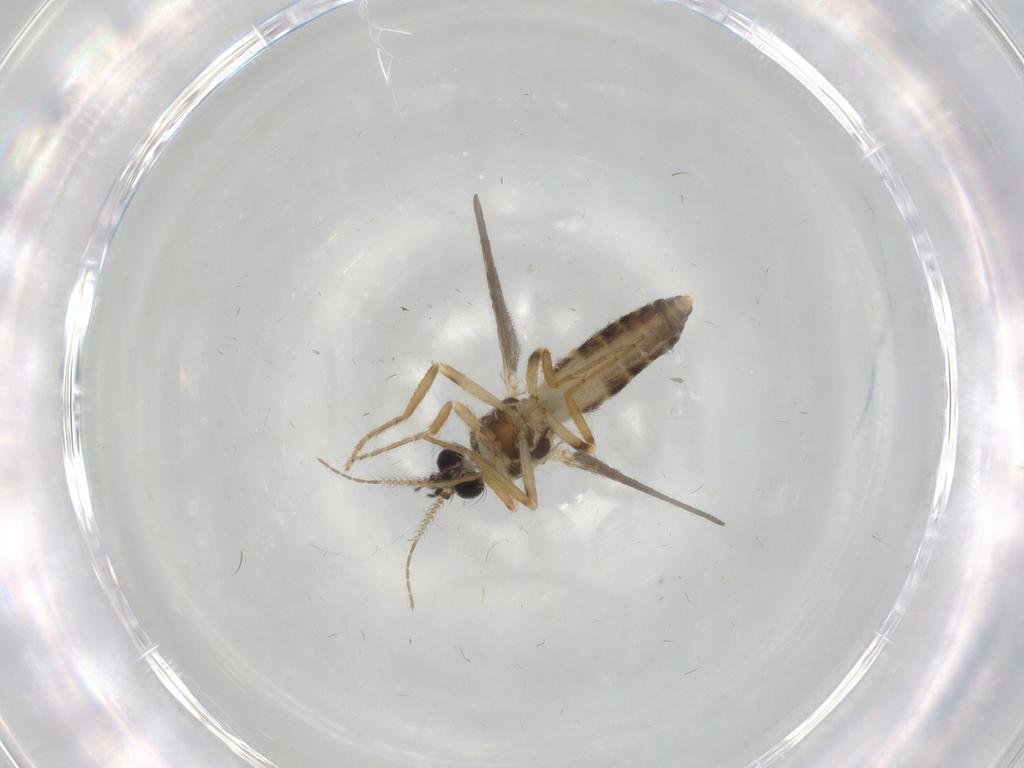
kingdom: Animalia
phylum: Arthropoda
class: Insecta
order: Diptera
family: Ceratopogonidae
